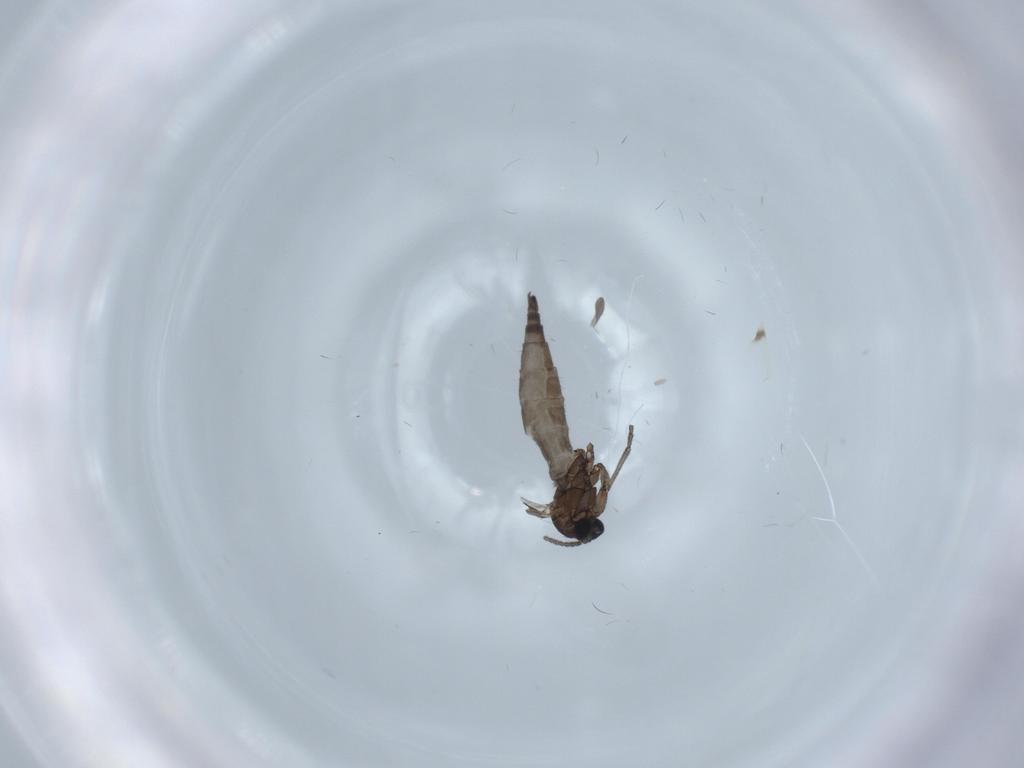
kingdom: Animalia
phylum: Arthropoda
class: Insecta
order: Diptera
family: Sciaridae
